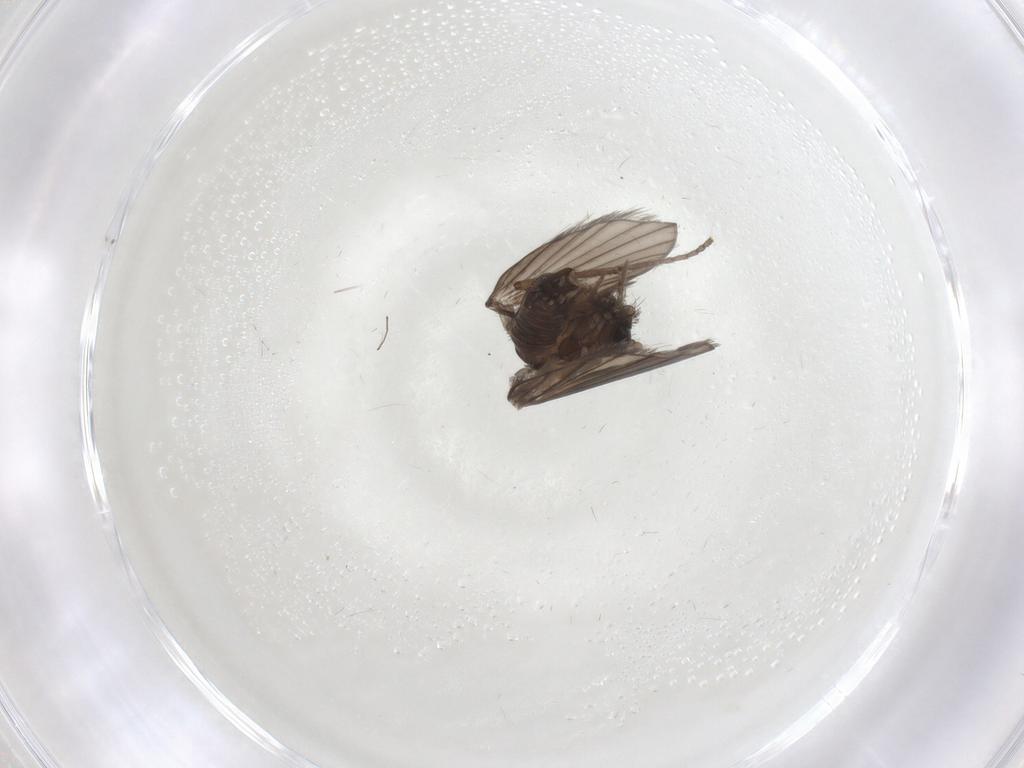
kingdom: Animalia
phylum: Arthropoda
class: Insecta
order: Diptera
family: Psychodidae
